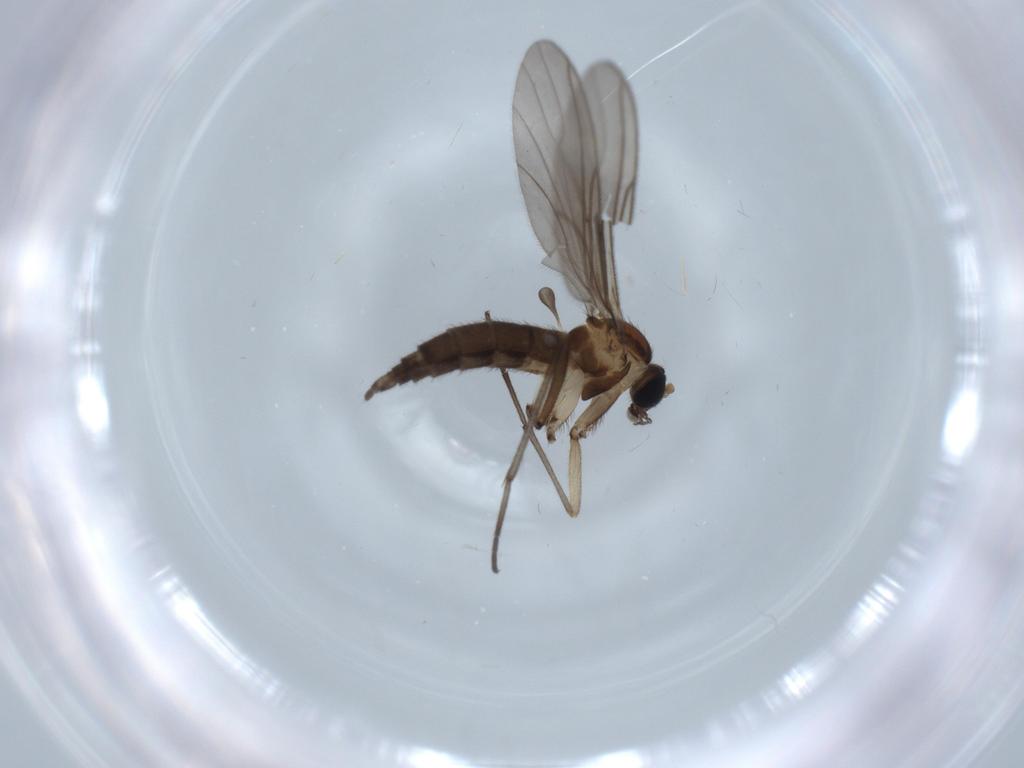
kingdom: Animalia
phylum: Arthropoda
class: Insecta
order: Diptera
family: Sciaridae
